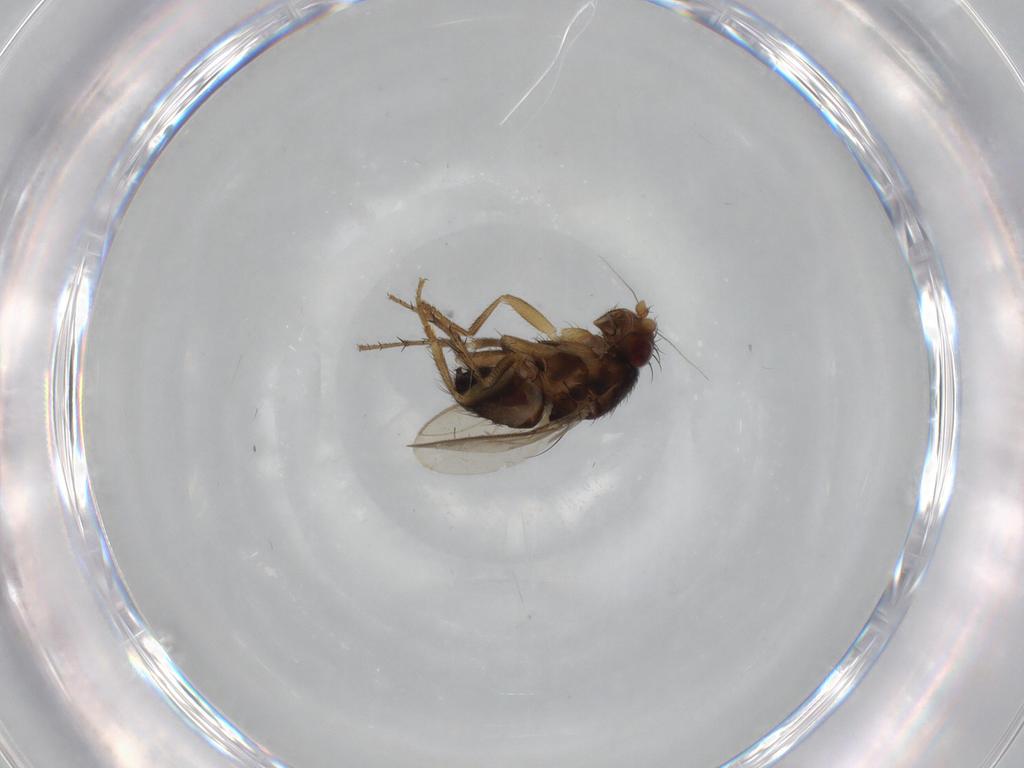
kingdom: Animalia
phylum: Arthropoda
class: Insecta
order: Diptera
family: Sphaeroceridae
